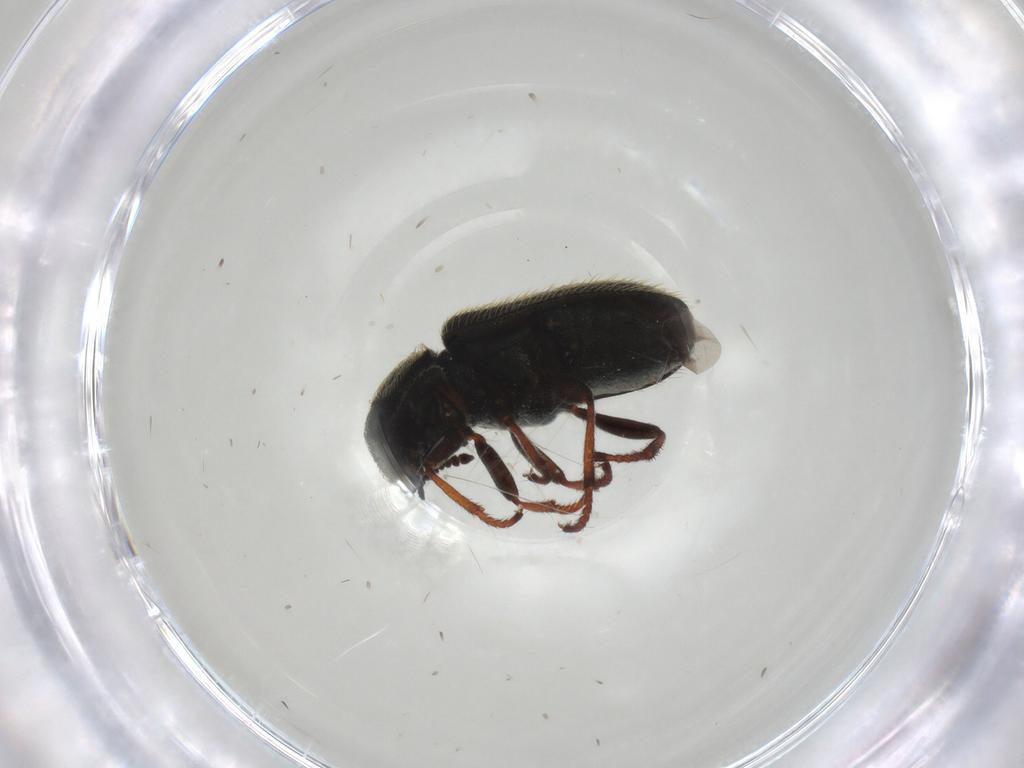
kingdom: Animalia
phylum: Arthropoda
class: Insecta
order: Coleoptera
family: Melyridae
